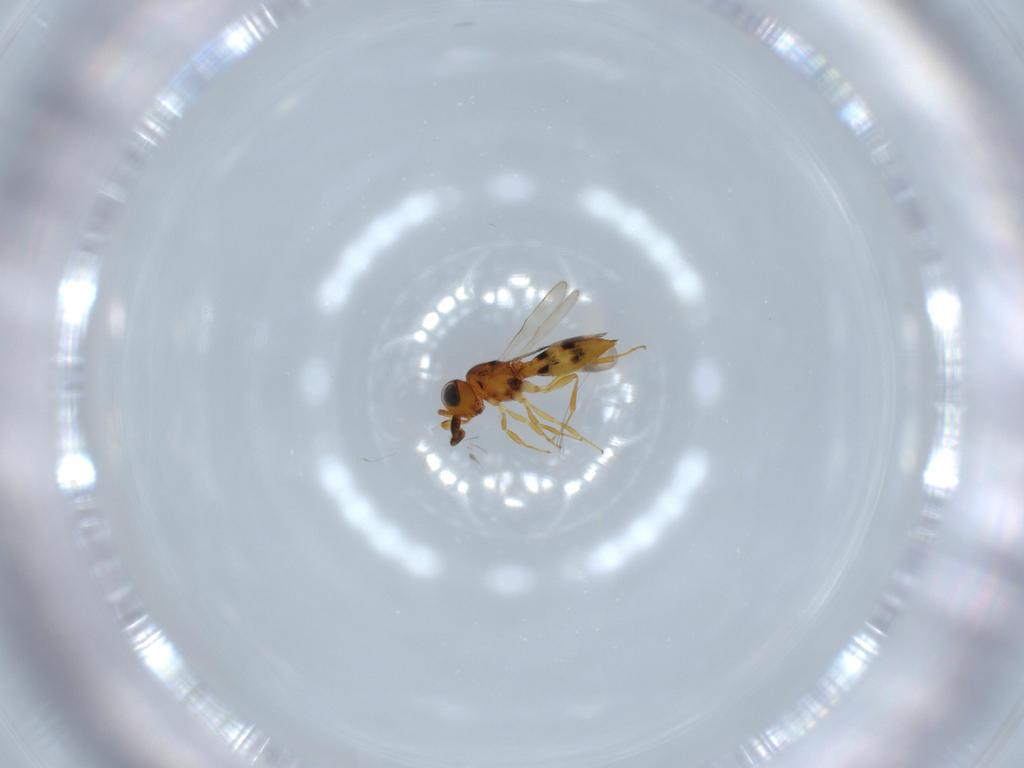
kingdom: Animalia
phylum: Arthropoda
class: Insecta
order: Hymenoptera
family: Scelionidae
